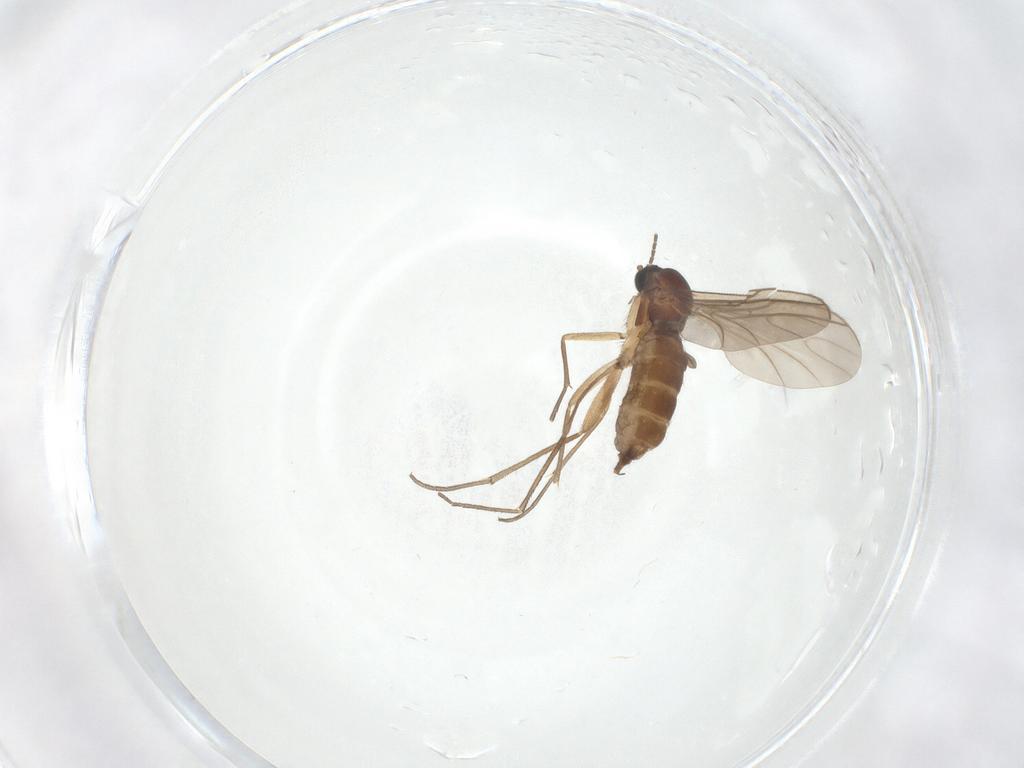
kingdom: Animalia
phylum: Arthropoda
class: Insecta
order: Diptera
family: Sciaridae
